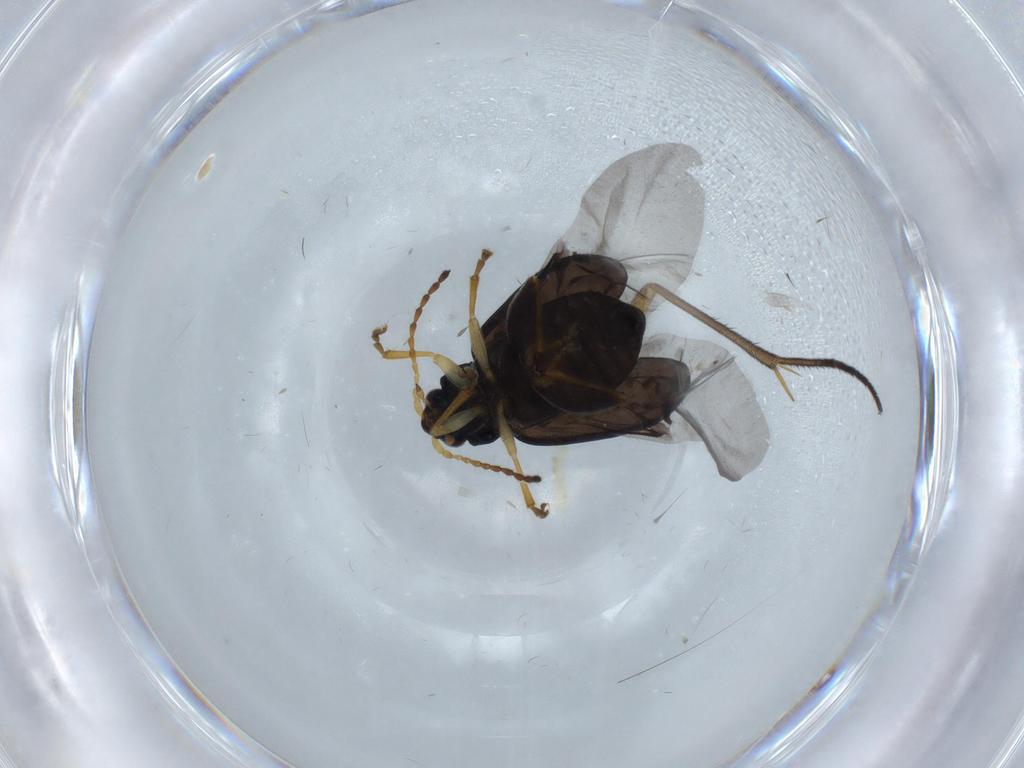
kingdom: Animalia
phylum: Arthropoda
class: Insecta
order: Coleoptera
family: Chrysomelidae
